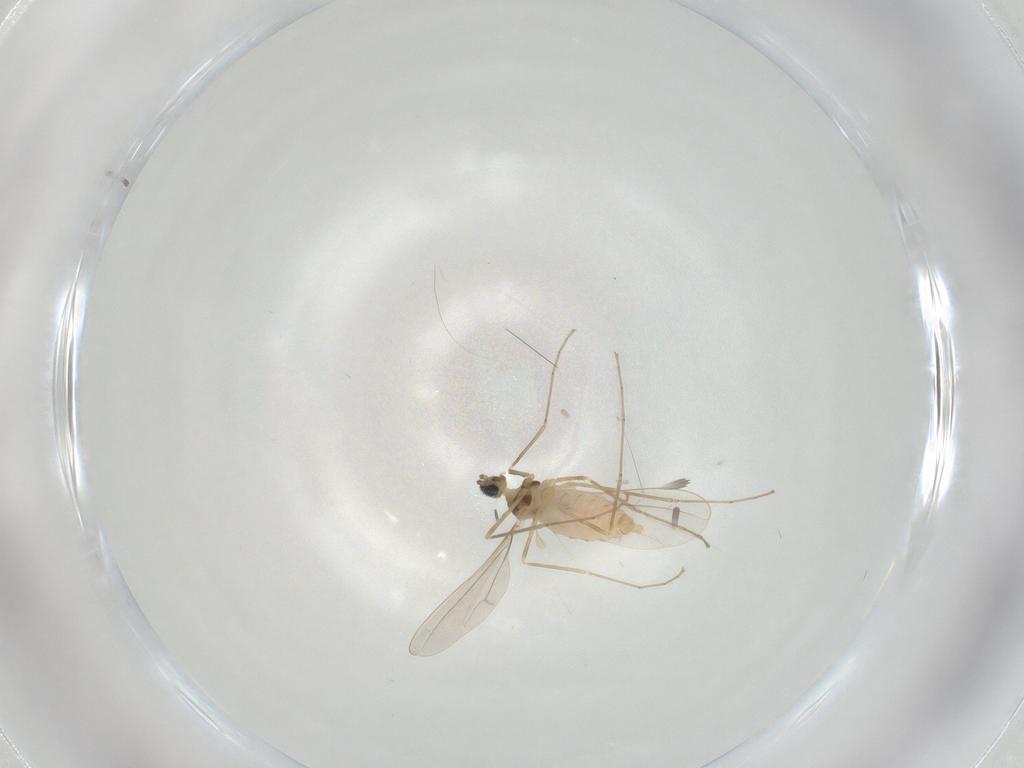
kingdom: Animalia
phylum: Arthropoda
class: Insecta
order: Diptera
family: Cecidomyiidae
